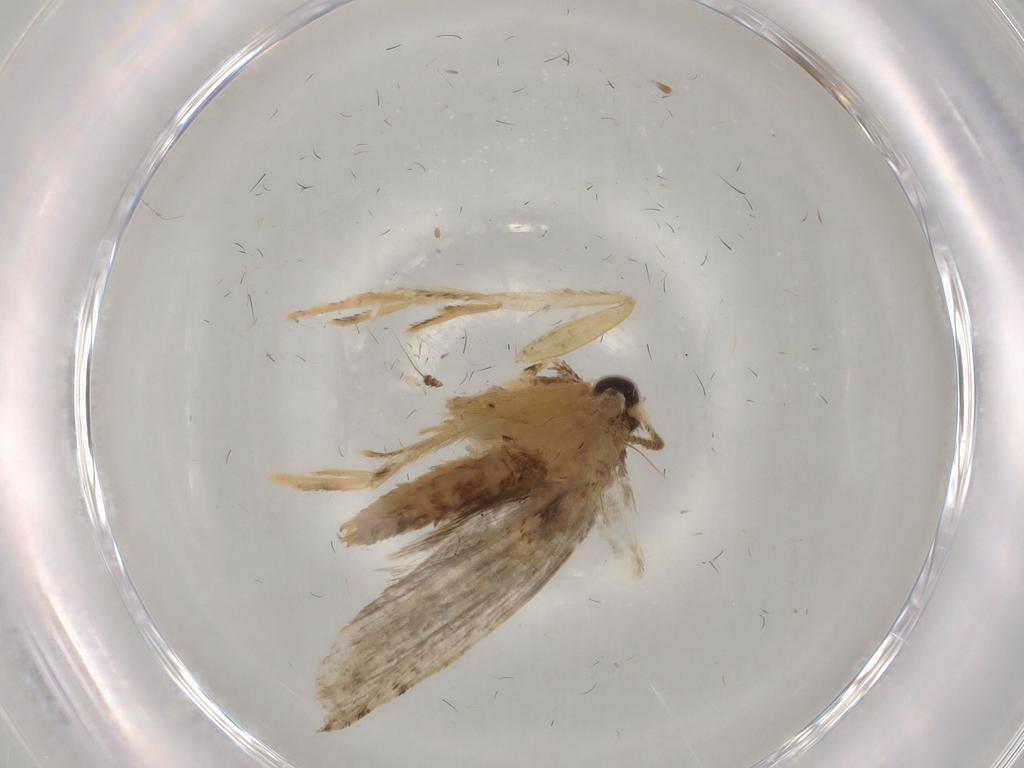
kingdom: Animalia
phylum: Arthropoda
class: Insecta
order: Lepidoptera
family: Tineidae
